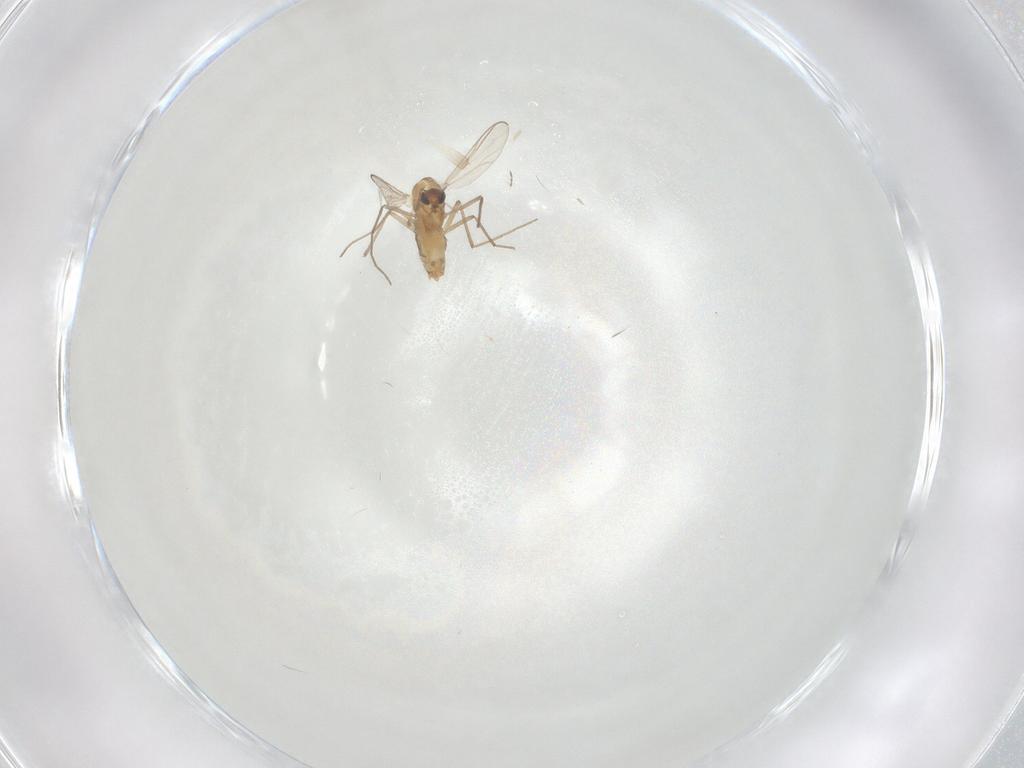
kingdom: Animalia
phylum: Arthropoda
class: Insecta
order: Diptera
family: Chironomidae
